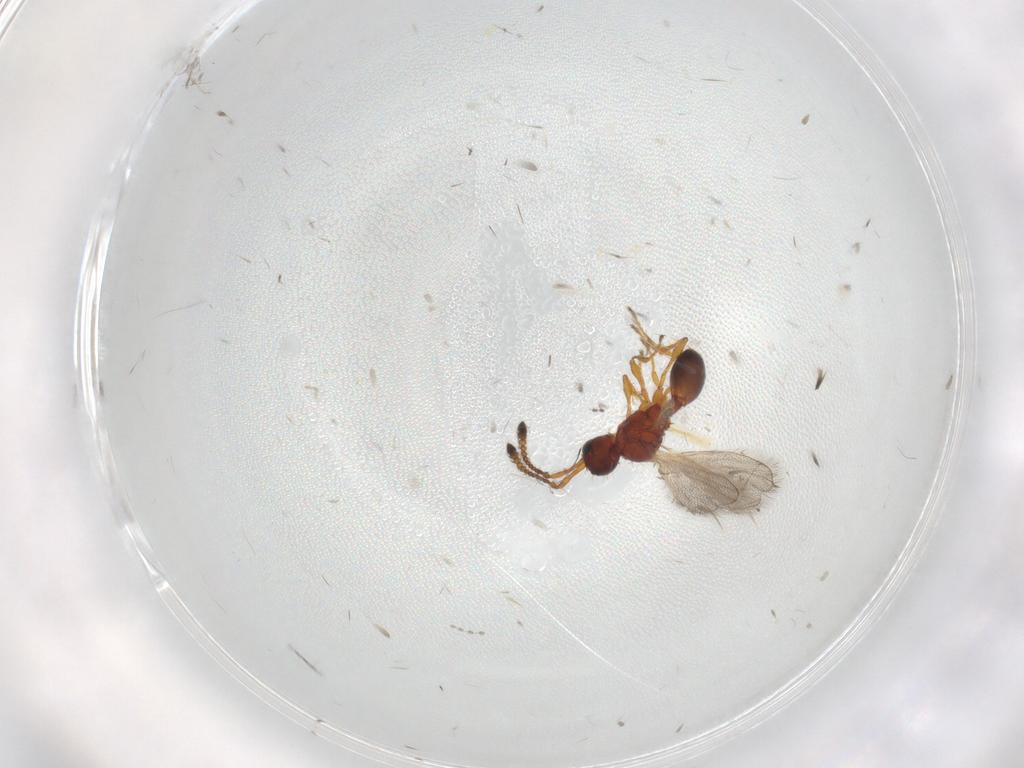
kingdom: Animalia
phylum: Arthropoda
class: Insecta
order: Hymenoptera
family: Diapriidae
